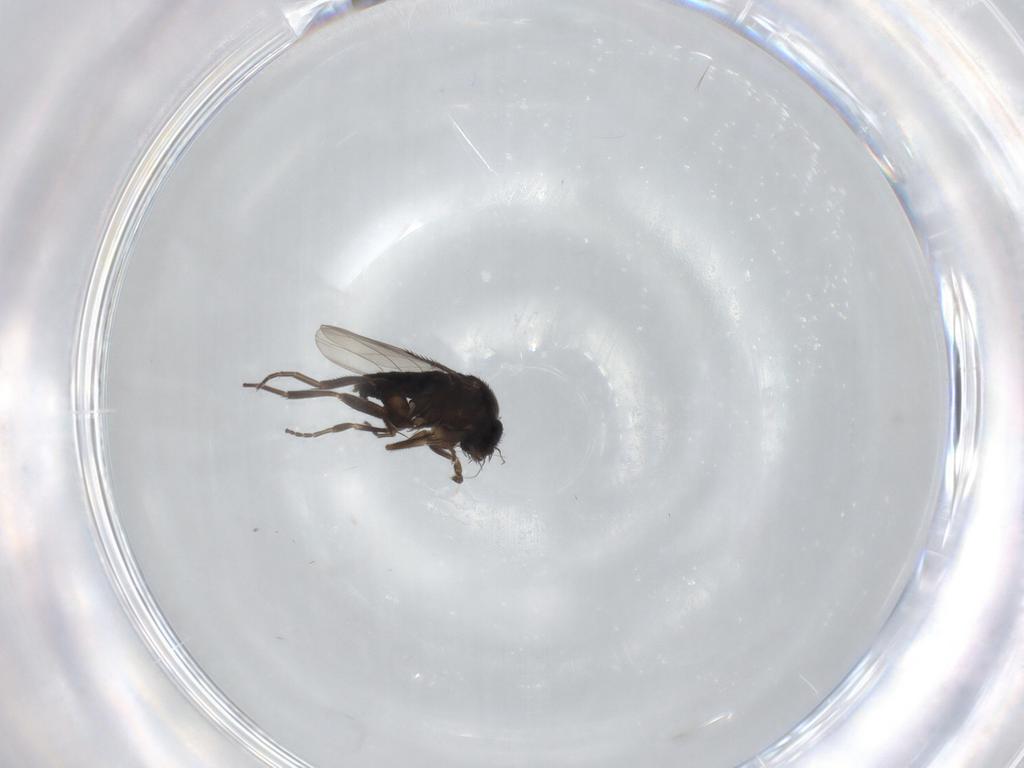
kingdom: Animalia
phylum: Arthropoda
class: Insecta
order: Diptera
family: Phoridae
